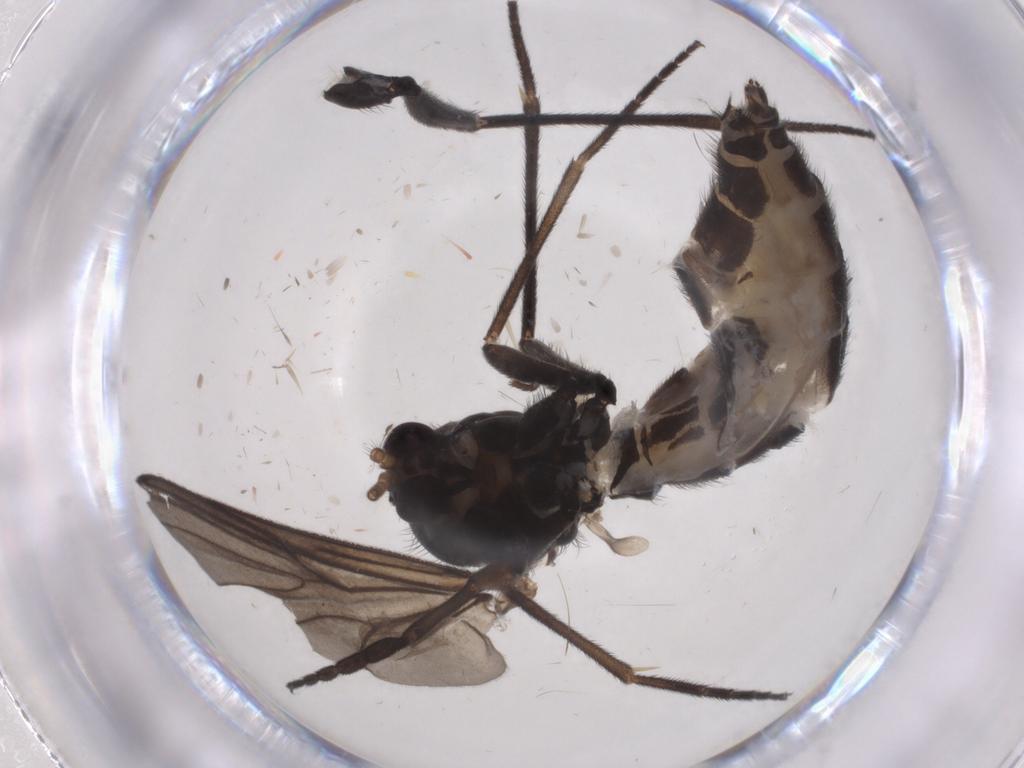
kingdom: Animalia
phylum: Arthropoda
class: Insecta
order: Diptera
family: Mycetophilidae
